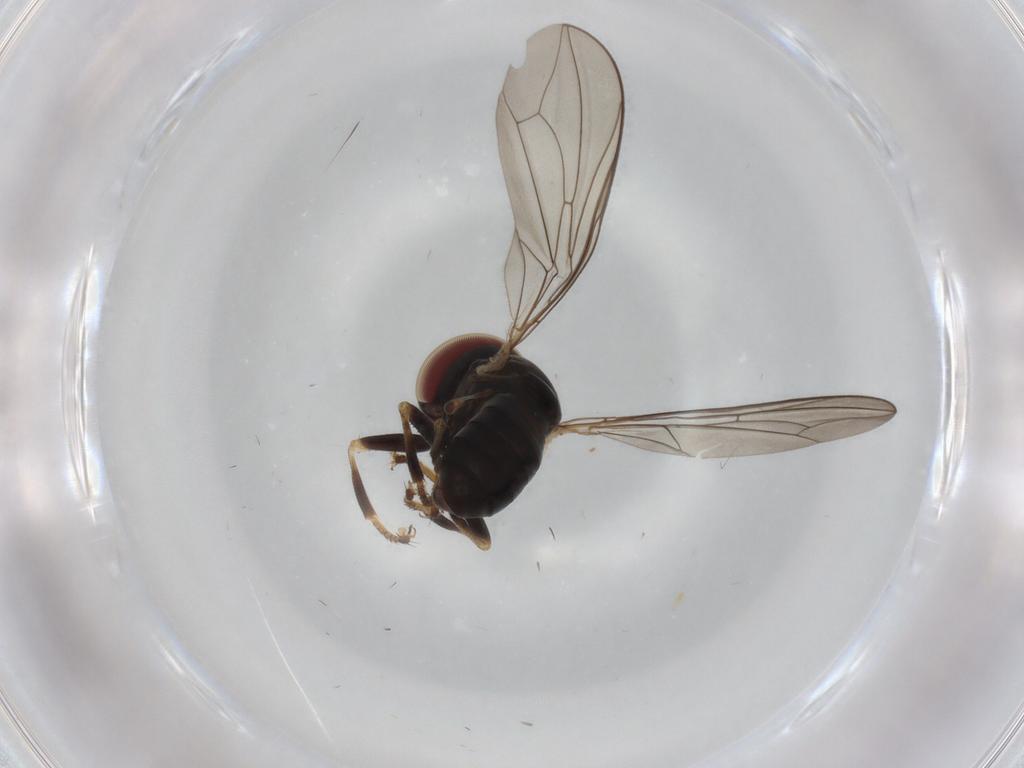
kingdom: Animalia
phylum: Arthropoda
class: Insecta
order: Diptera
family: Pipunculidae
